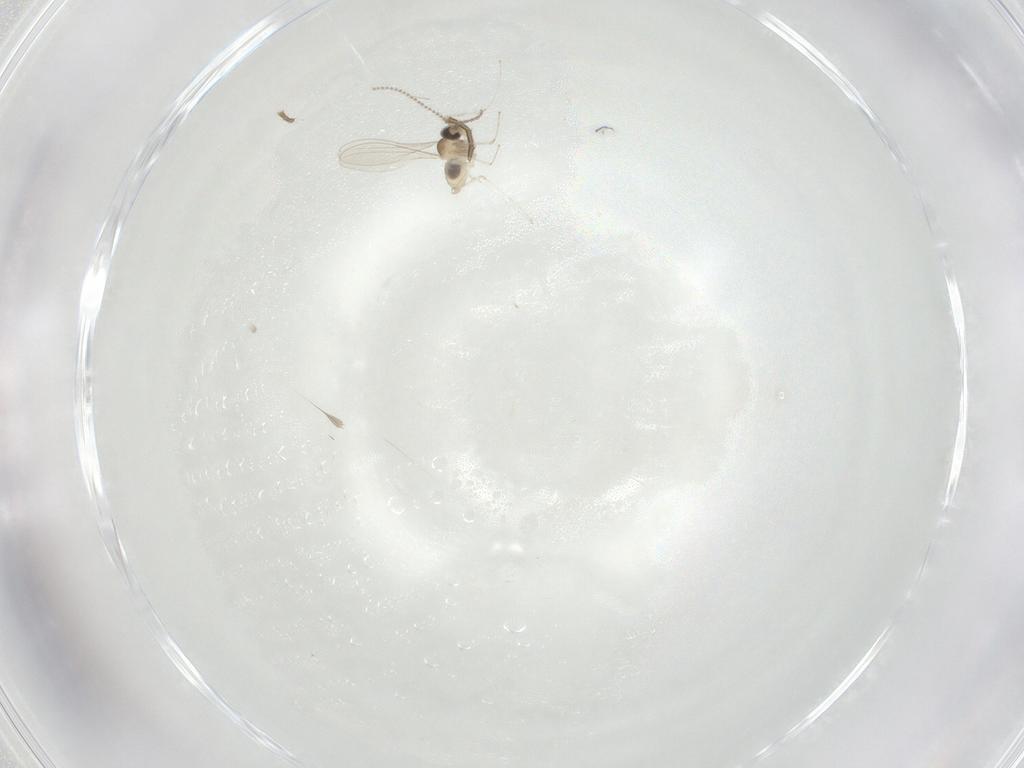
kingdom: Animalia
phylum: Arthropoda
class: Insecta
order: Diptera
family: Cecidomyiidae
